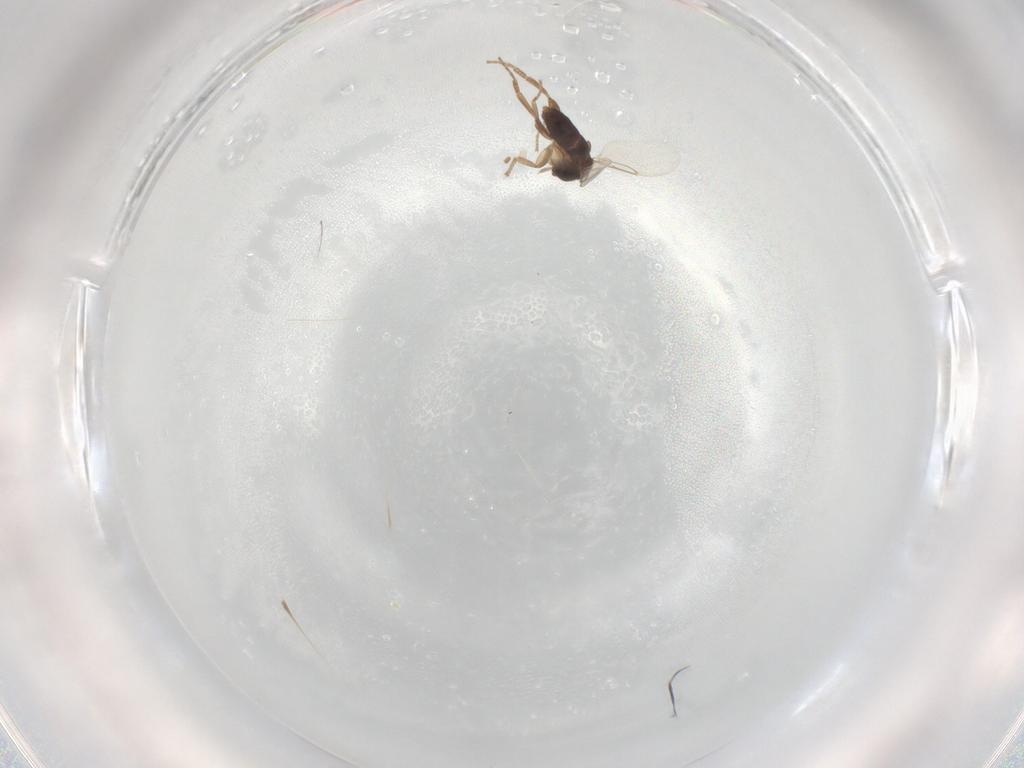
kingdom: Animalia
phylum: Arthropoda
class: Insecta
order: Diptera
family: Phoridae
